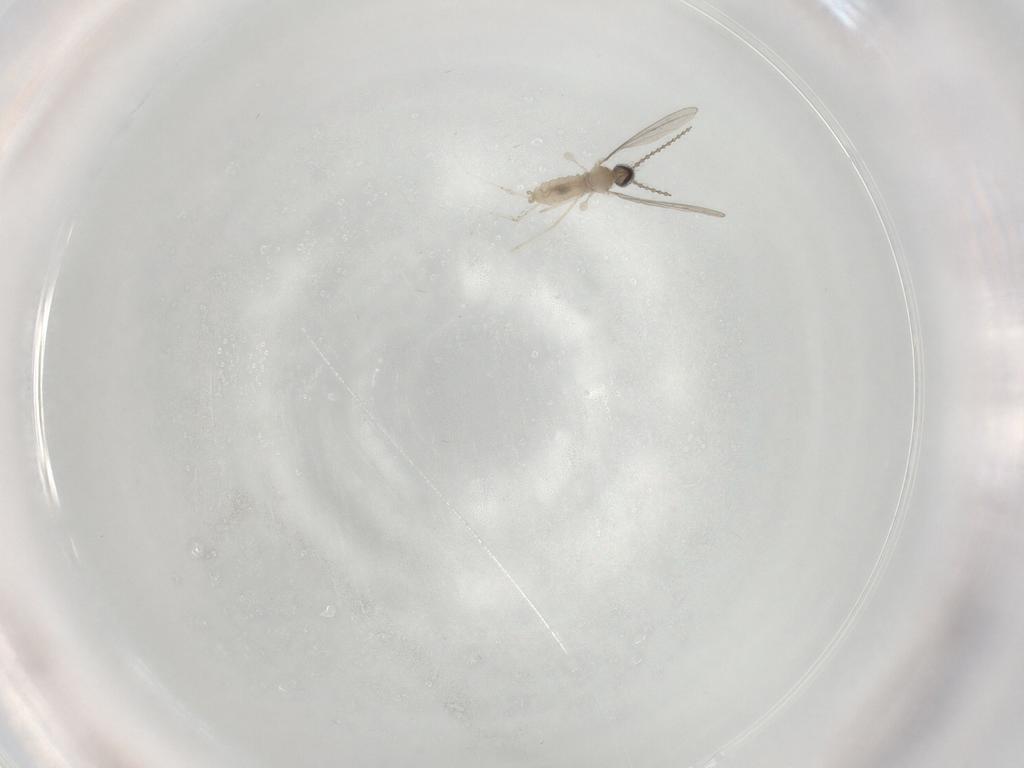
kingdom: Animalia
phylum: Arthropoda
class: Insecta
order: Diptera
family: Cecidomyiidae
